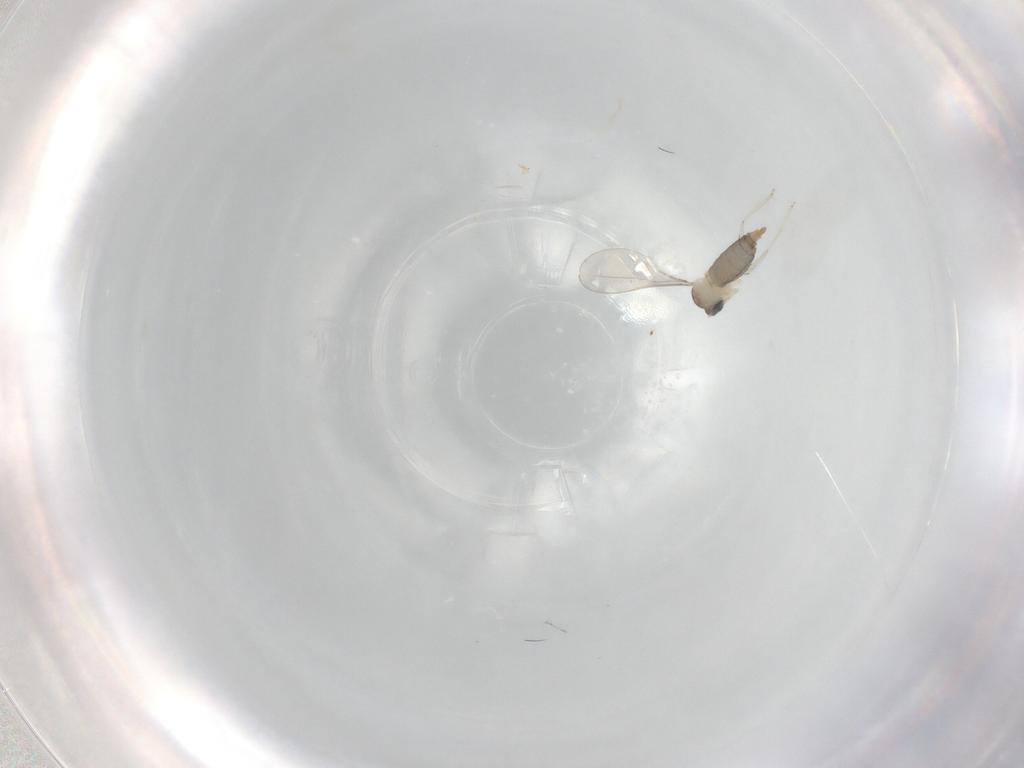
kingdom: Animalia
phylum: Arthropoda
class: Insecta
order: Diptera
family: Cecidomyiidae
